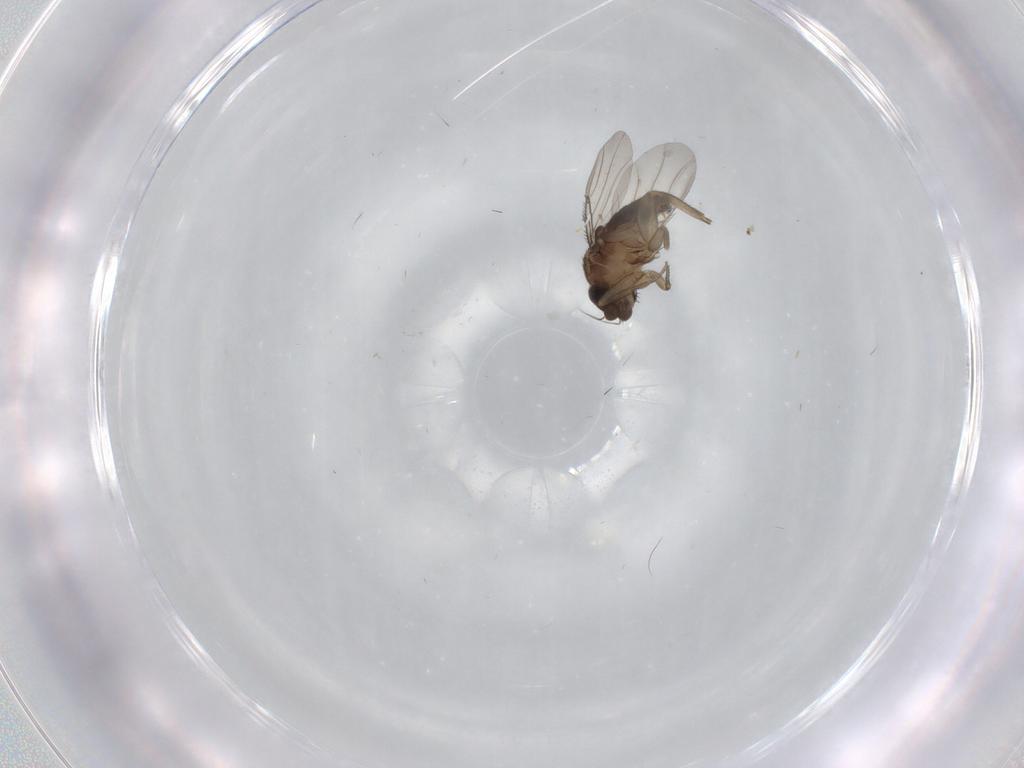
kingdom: Animalia
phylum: Arthropoda
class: Insecta
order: Diptera
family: Phoridae
